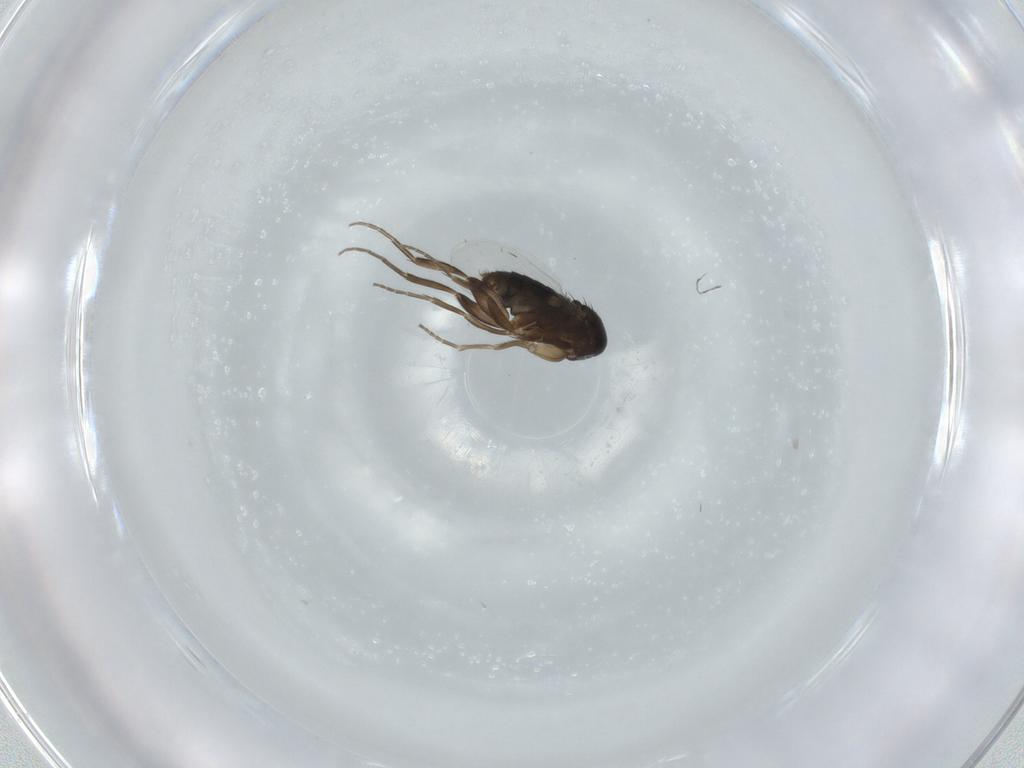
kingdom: Animalia
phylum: Arthropoda
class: Insecta
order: Diptera
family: Phoridae
